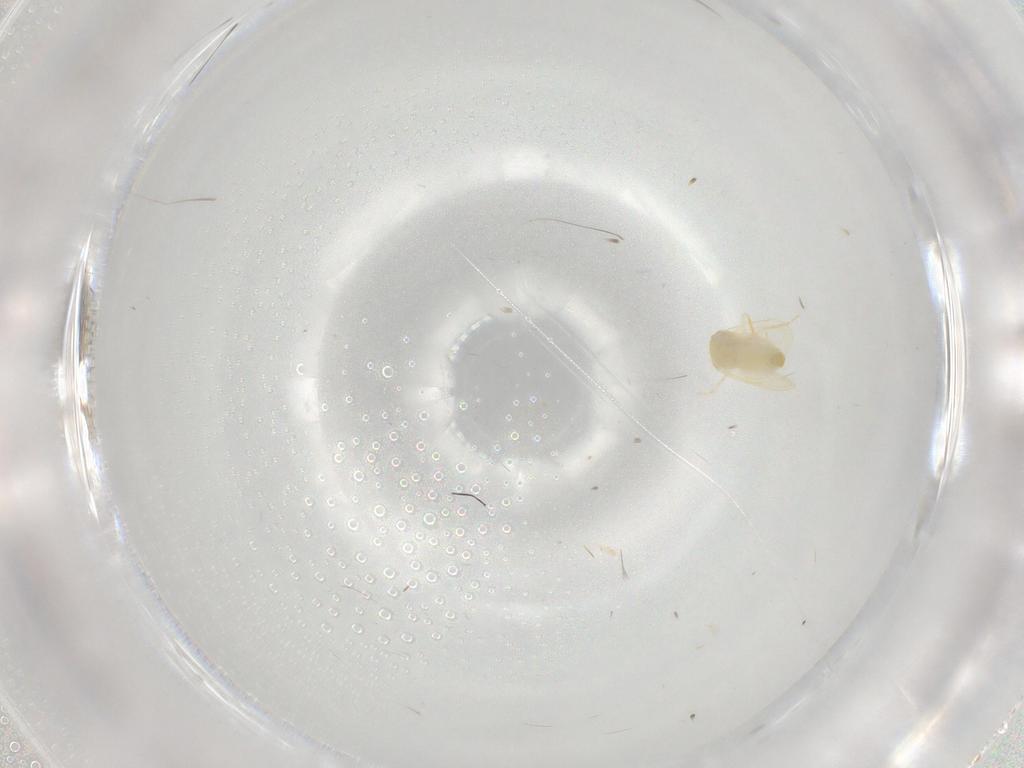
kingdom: Animalia
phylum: Arthropoda
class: Insecta
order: Hemiptera
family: Aleyrodidae
